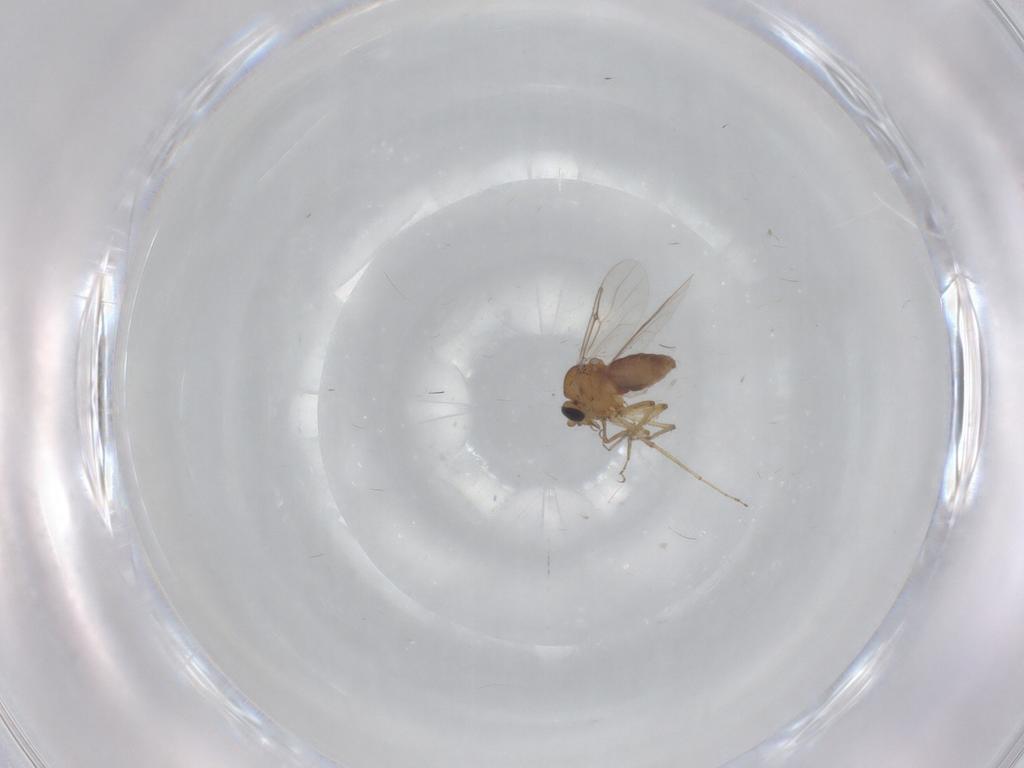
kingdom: Animalia
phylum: Arthropoda
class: Insecta
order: Diptera
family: Ceratopogonidae
